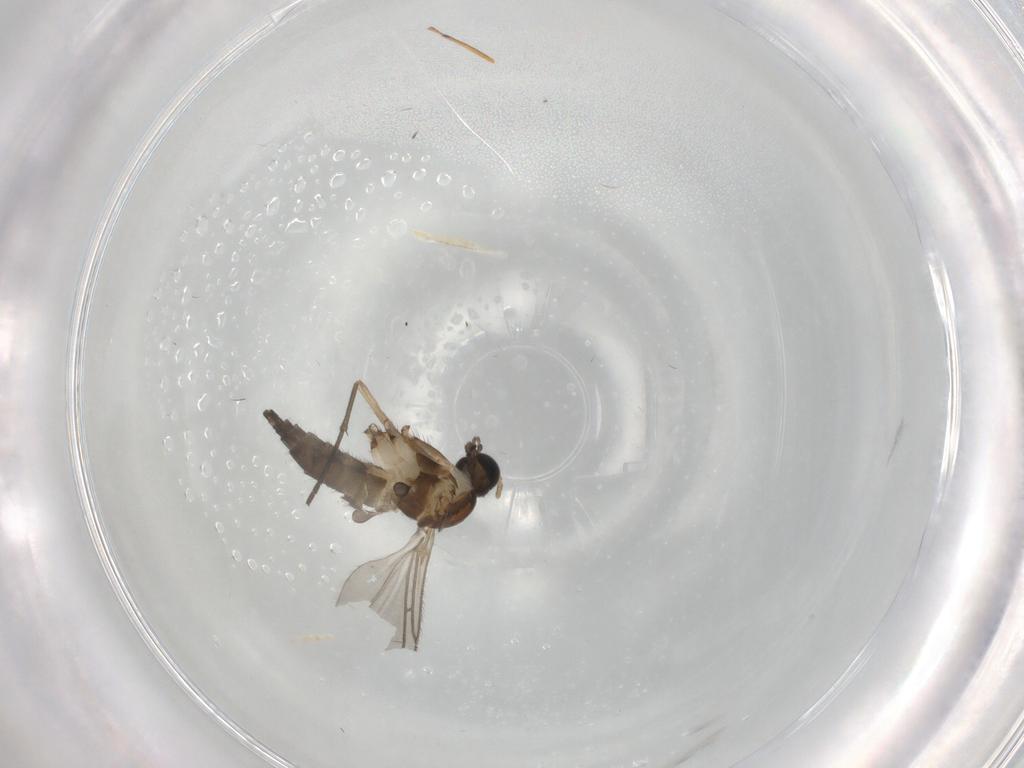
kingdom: Animalia
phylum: Arthropoda
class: Insecta
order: Diptera
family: Sciaridae
